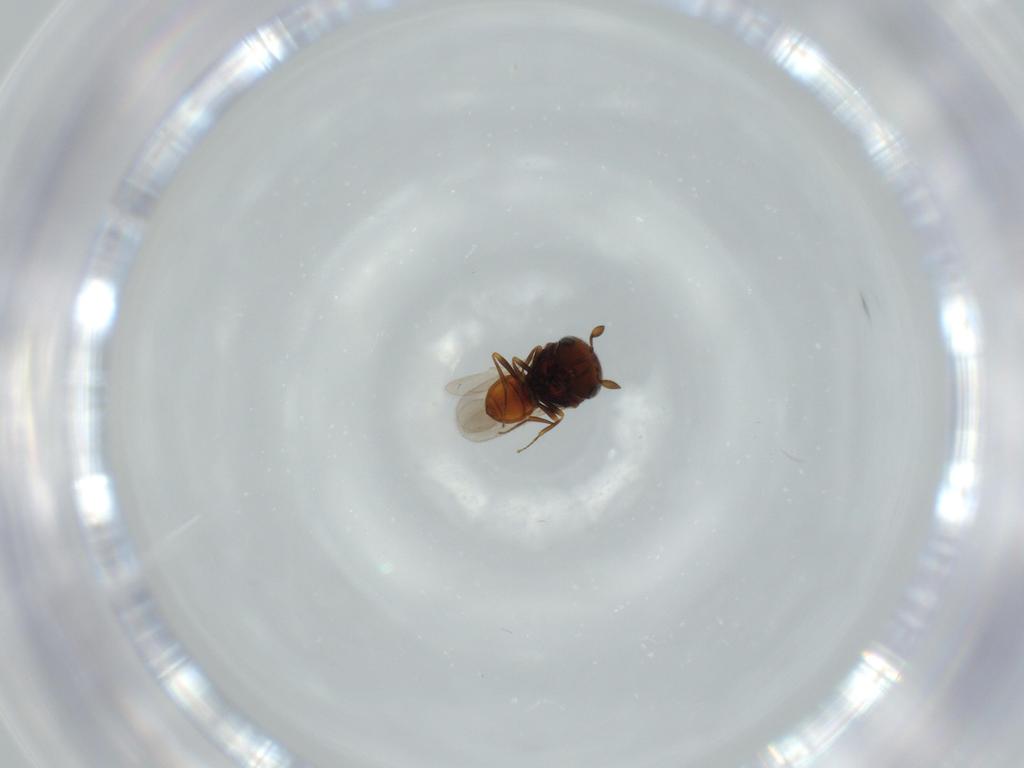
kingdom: Animalia
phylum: Arthropoda
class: Insecta
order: Hymenoptera
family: Scelionidae
